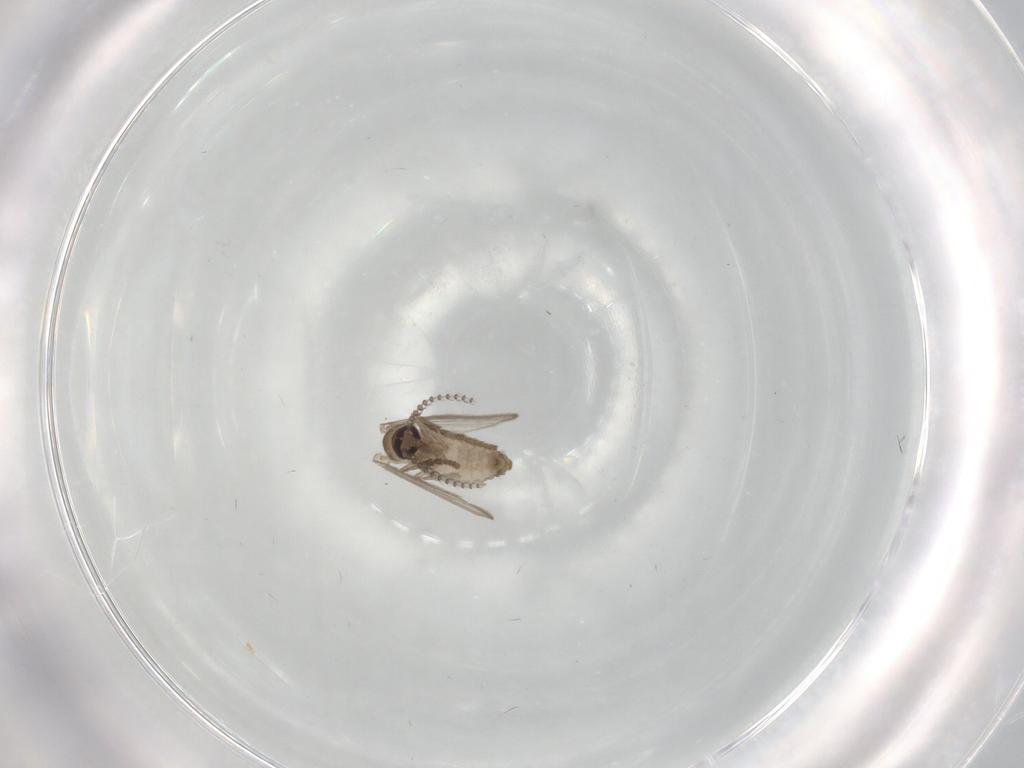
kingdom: Animalia
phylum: Arthropoda
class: Insecta
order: Diptera
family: Psychodidae
